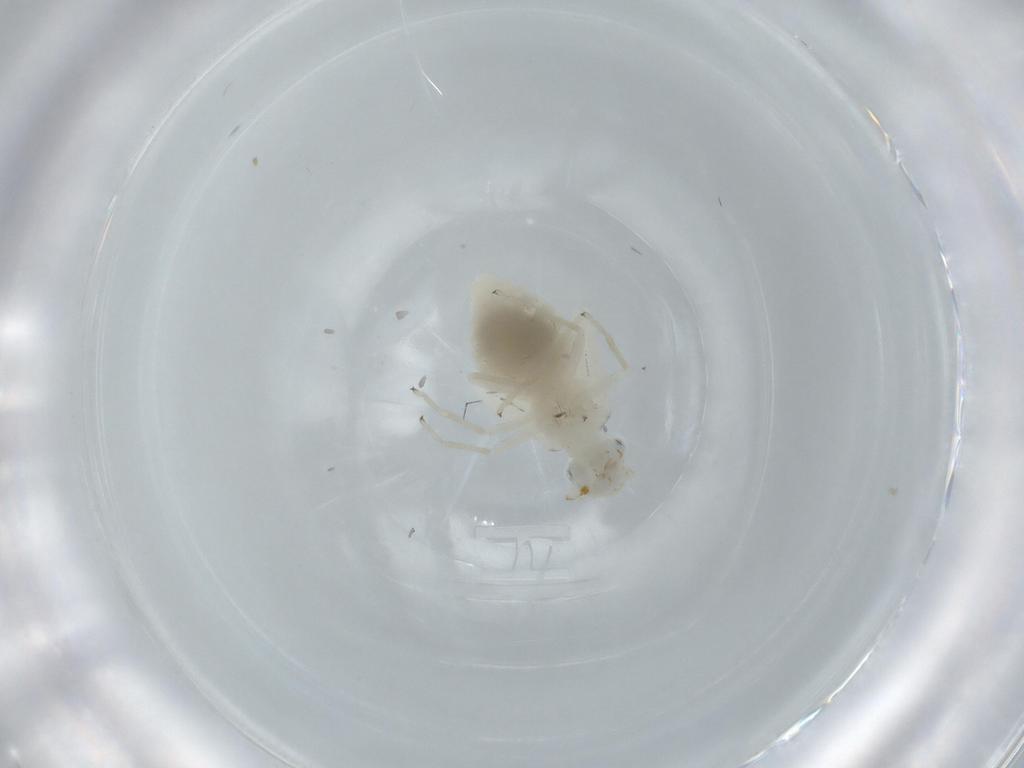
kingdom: Animalia
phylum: Arthropoda
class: Insecta
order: Psocodea
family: Caeciliusidae
